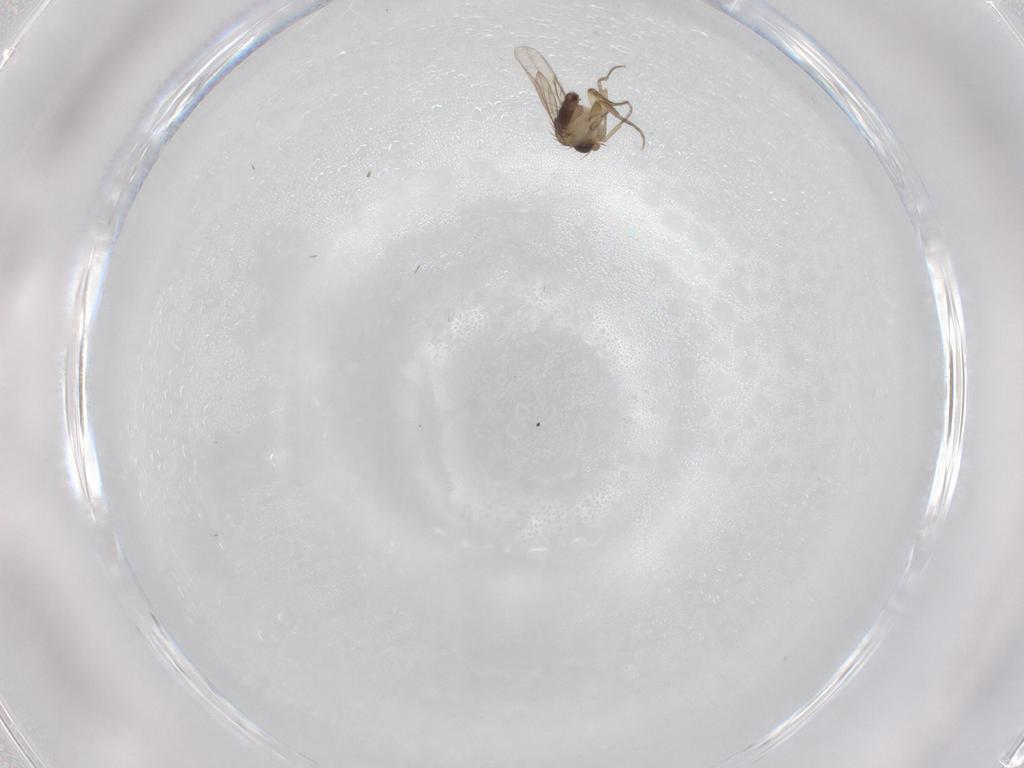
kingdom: Animalia
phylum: Arthropoda
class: Insecta
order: Diptera
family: Phoridae
